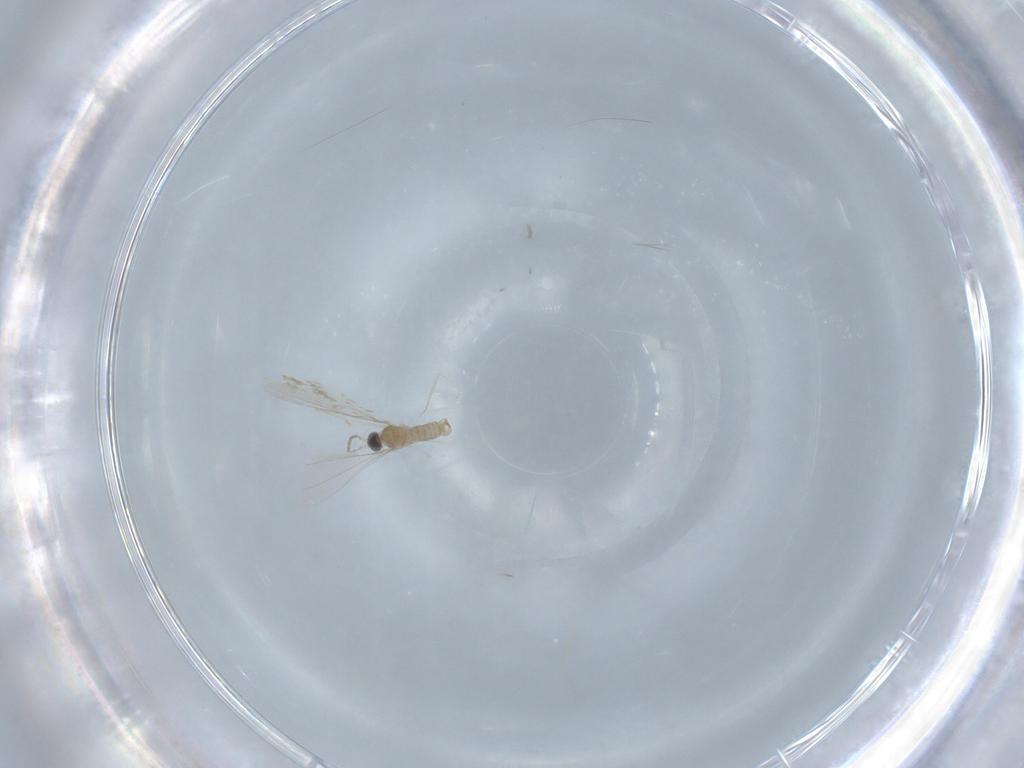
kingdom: Animalia
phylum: Arthropoda
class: Insecta
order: Diptera
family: Cecidomyiidae
